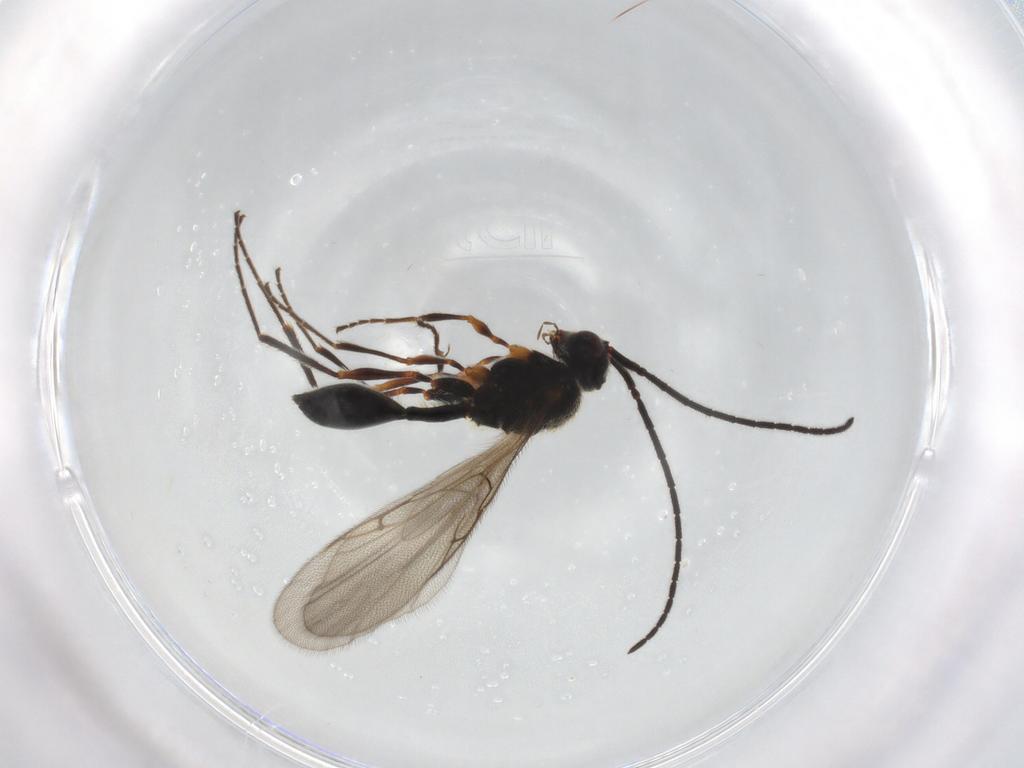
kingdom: Animalia
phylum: Arthropoda
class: Insecta
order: Hymenoptera
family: Diapriidae
